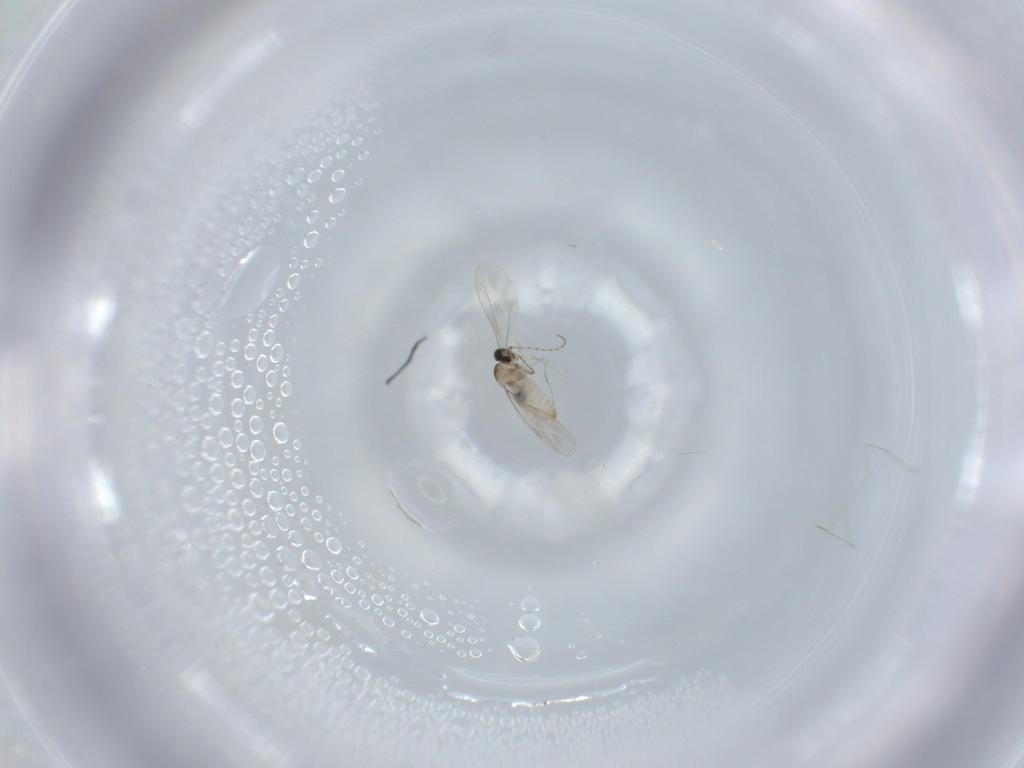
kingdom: Animalia
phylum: Arthropoda
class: Insecta
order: Diptera
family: Cecidomyiidae
